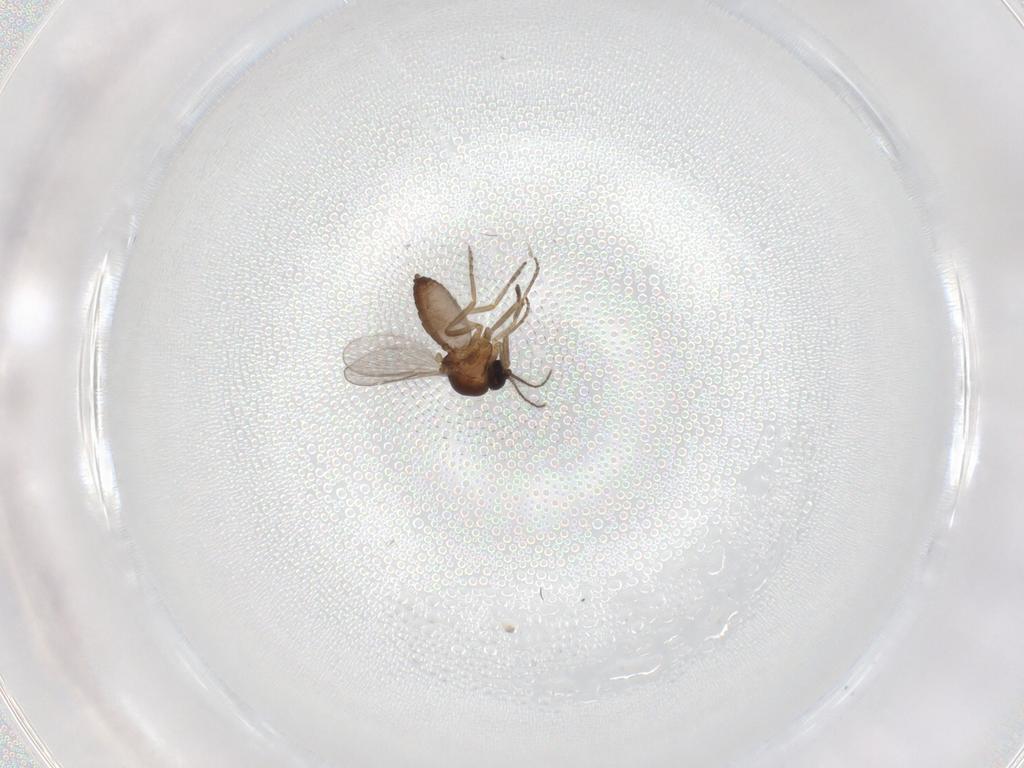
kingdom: Animalia
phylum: Arthropoda
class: Insecta
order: Diptera
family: Ceratopogonidae
